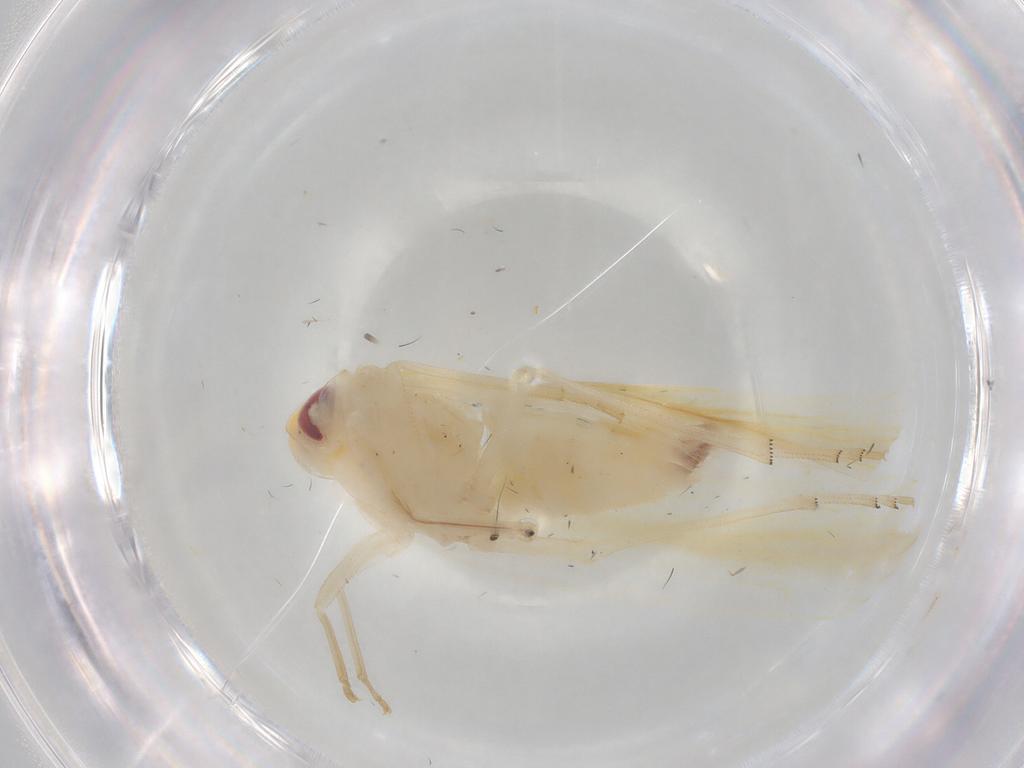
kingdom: Animalia
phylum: Arthropoda
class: Insecta
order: Hemiptera
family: Derbidae
